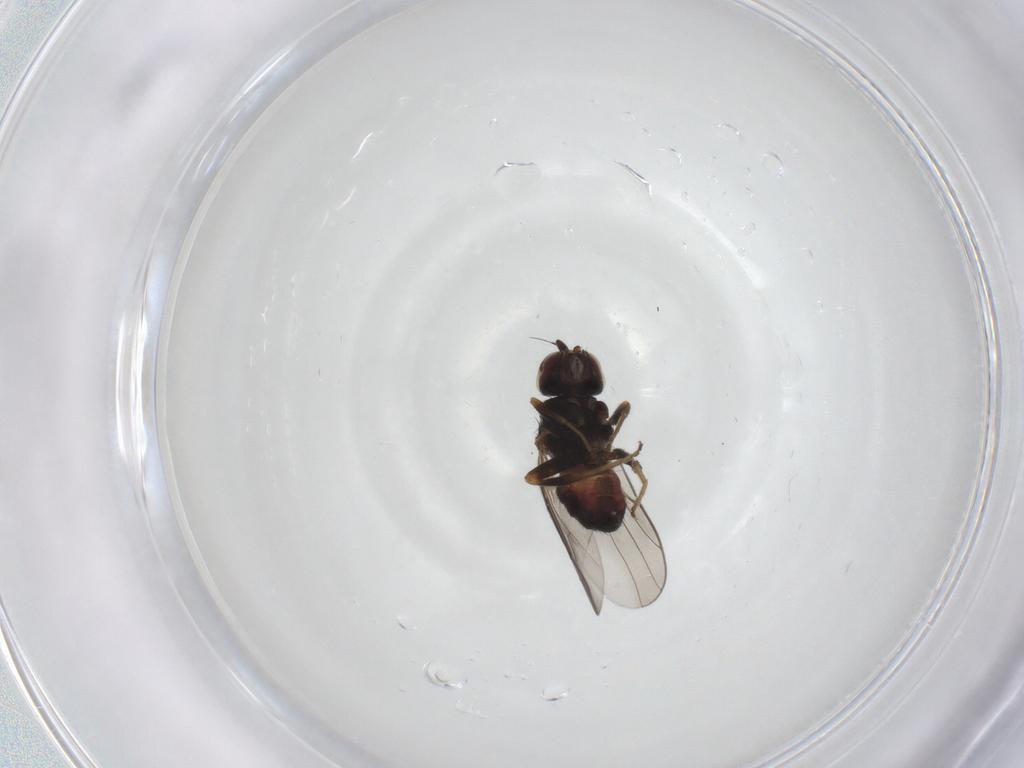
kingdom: Animalia
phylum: Arthropoda
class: Insecta
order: Diptera
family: Chloropidae
